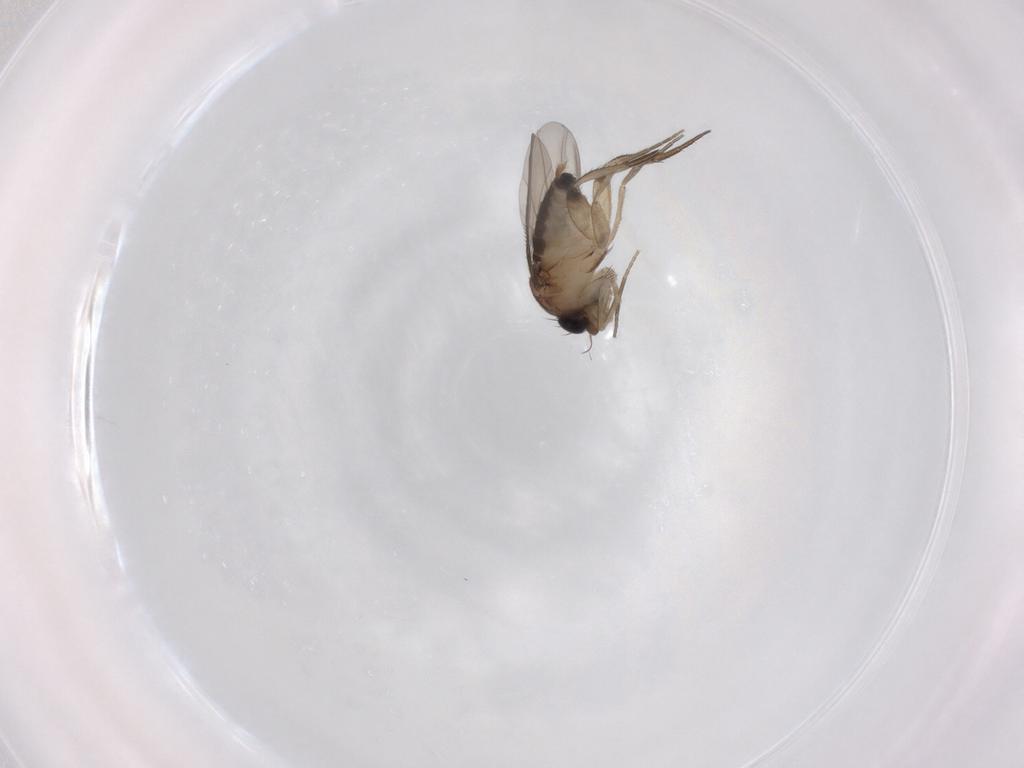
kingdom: Animalia
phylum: Arthropoda
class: Insecta
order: Diptera
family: Phoridae
